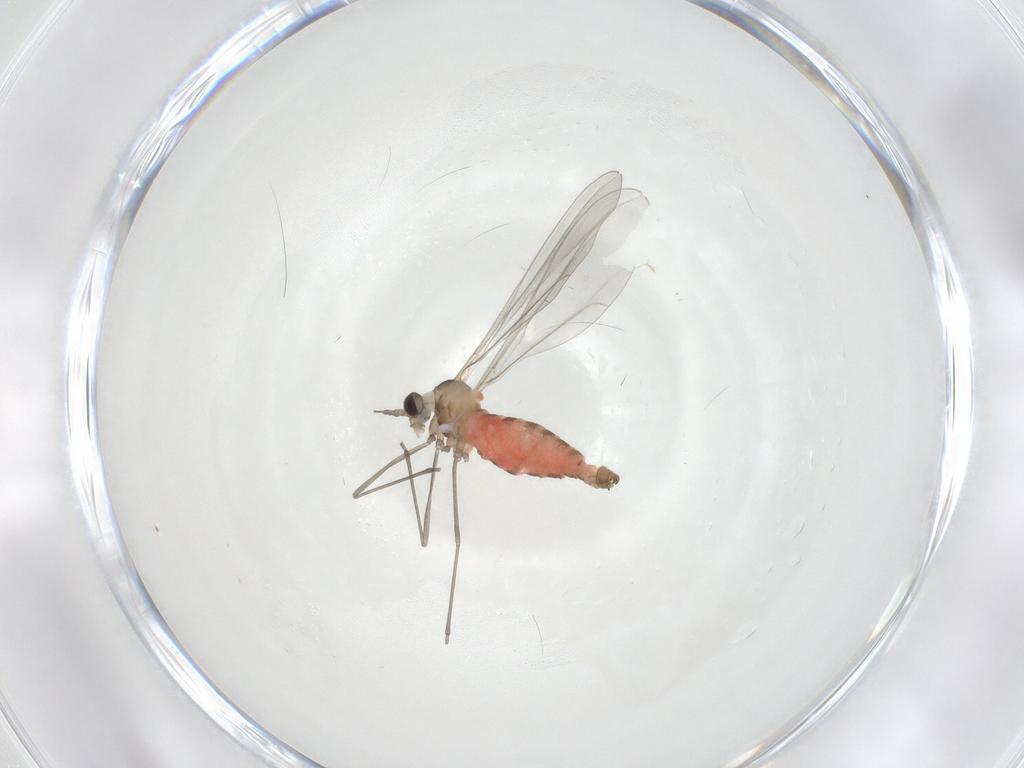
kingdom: Animalia
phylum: Arthropoda
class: Insecta
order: Diptera
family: Cecidomyiidae
